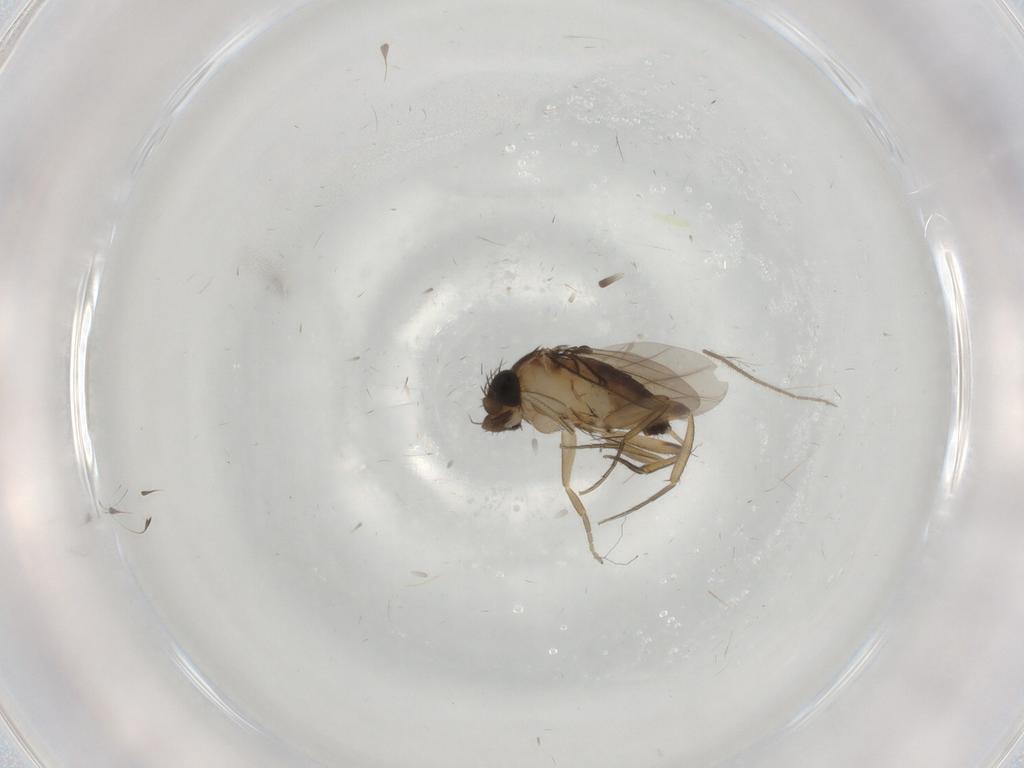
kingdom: Animalia
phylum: Arthropoda
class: Insecta
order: Diptera
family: Phoridae
